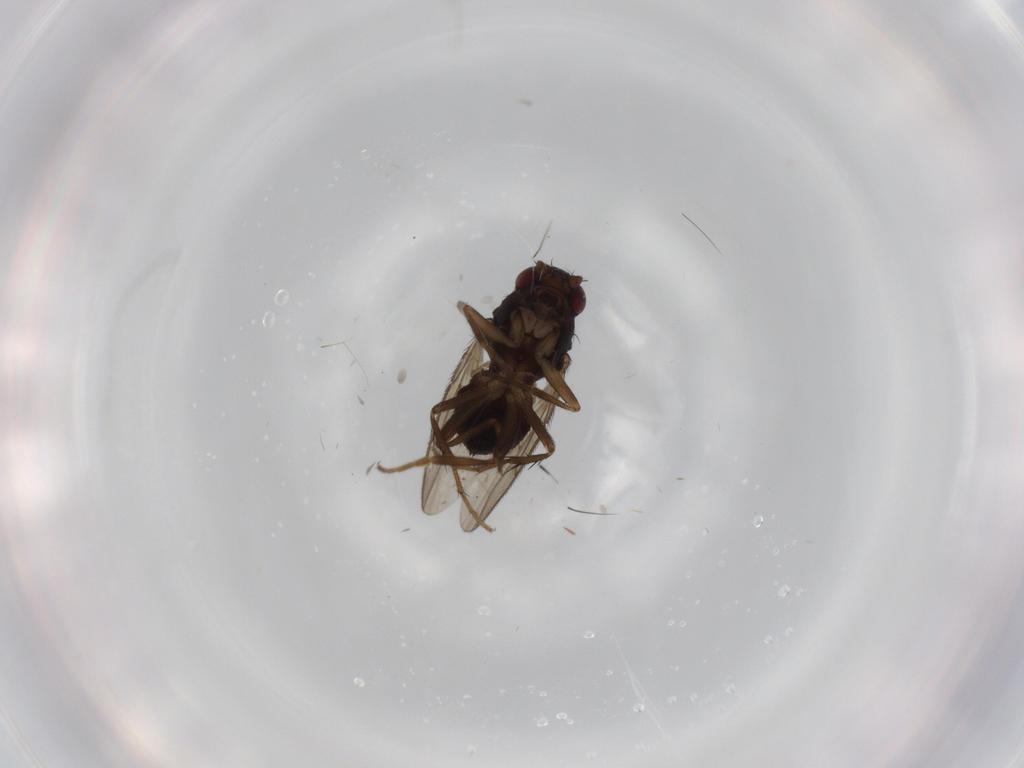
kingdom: Animalia
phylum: Arthropoda
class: Insecta
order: Diptera
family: Sphaeroceridae
